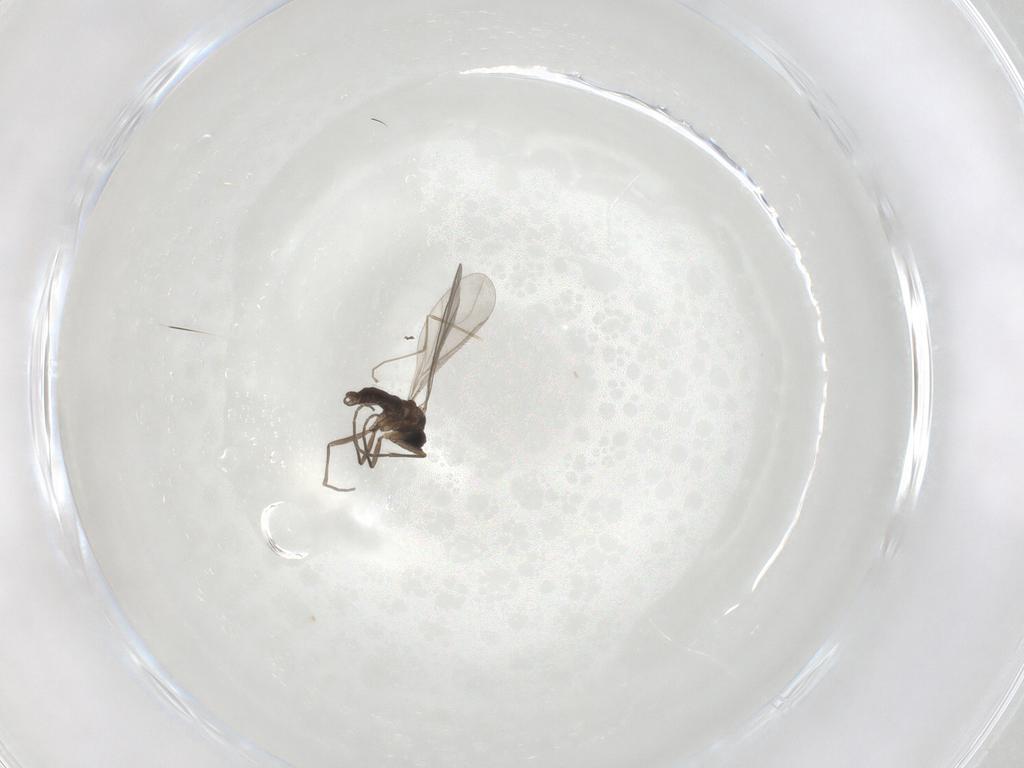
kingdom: Animalia
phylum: Arthropoda
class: Insecta
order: Diptera
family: Sciaridae
